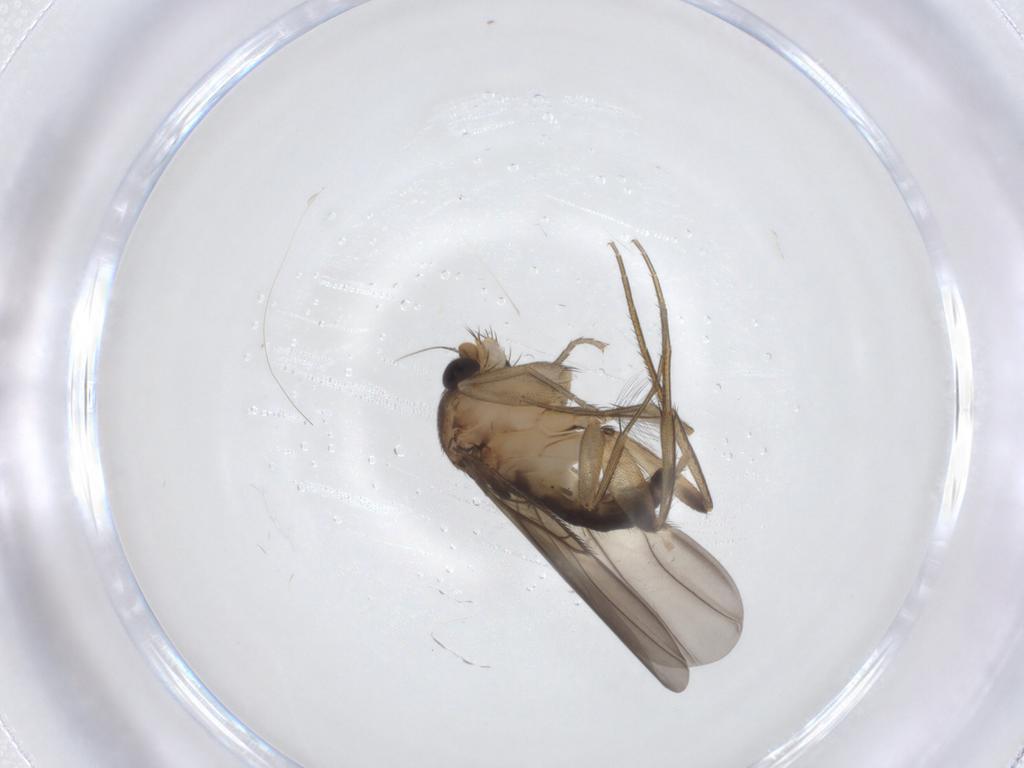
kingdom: Animalia
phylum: Arthropoda
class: Insecta
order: Diptera
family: Phoridae
